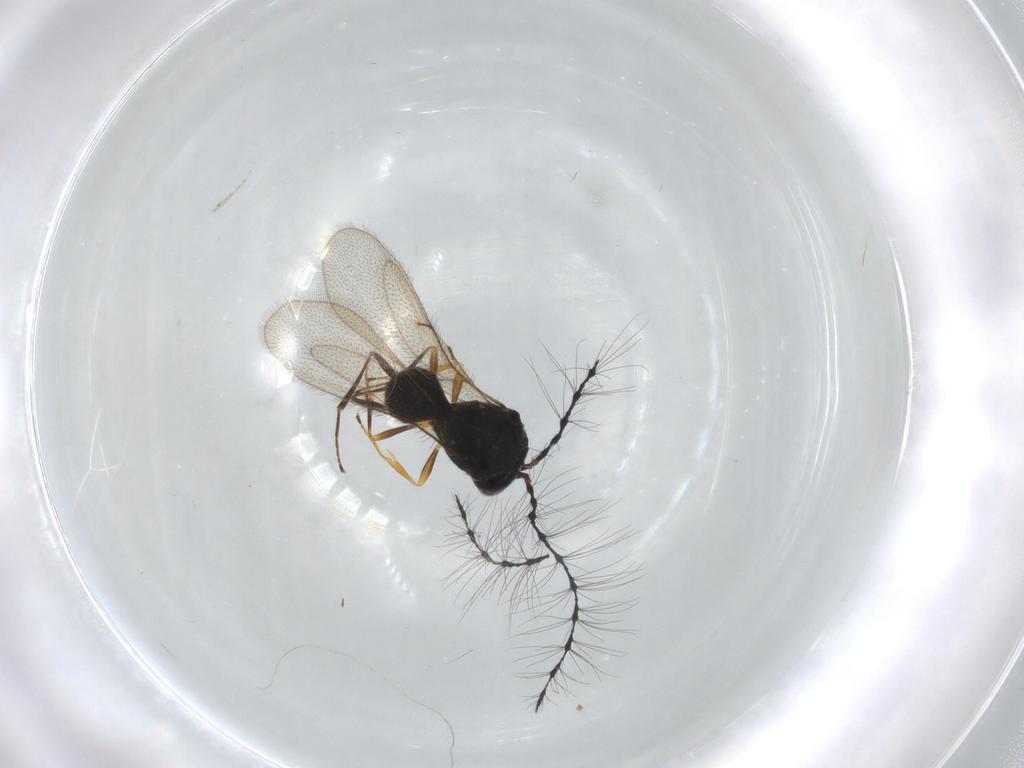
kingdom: Animalia
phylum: Arthropoda
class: Insecta
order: Hymenoptera
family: Scelionidae
